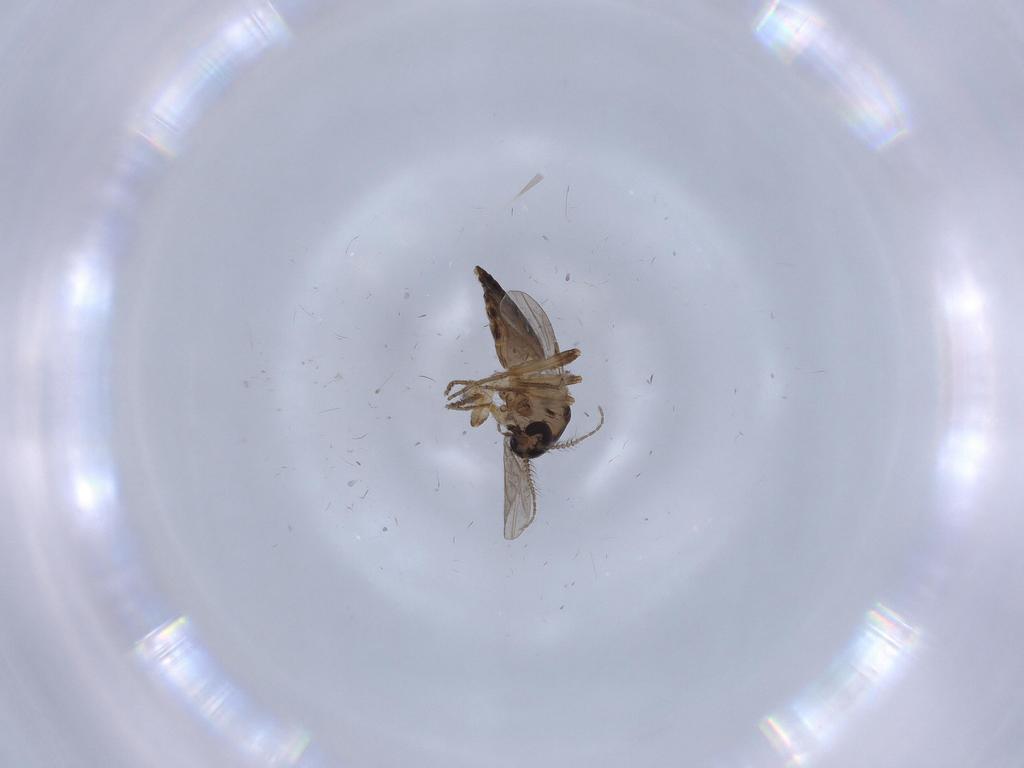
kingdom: Animalia
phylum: Arthropoda
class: Insecta
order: Diptera
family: Ceratopogonidae
